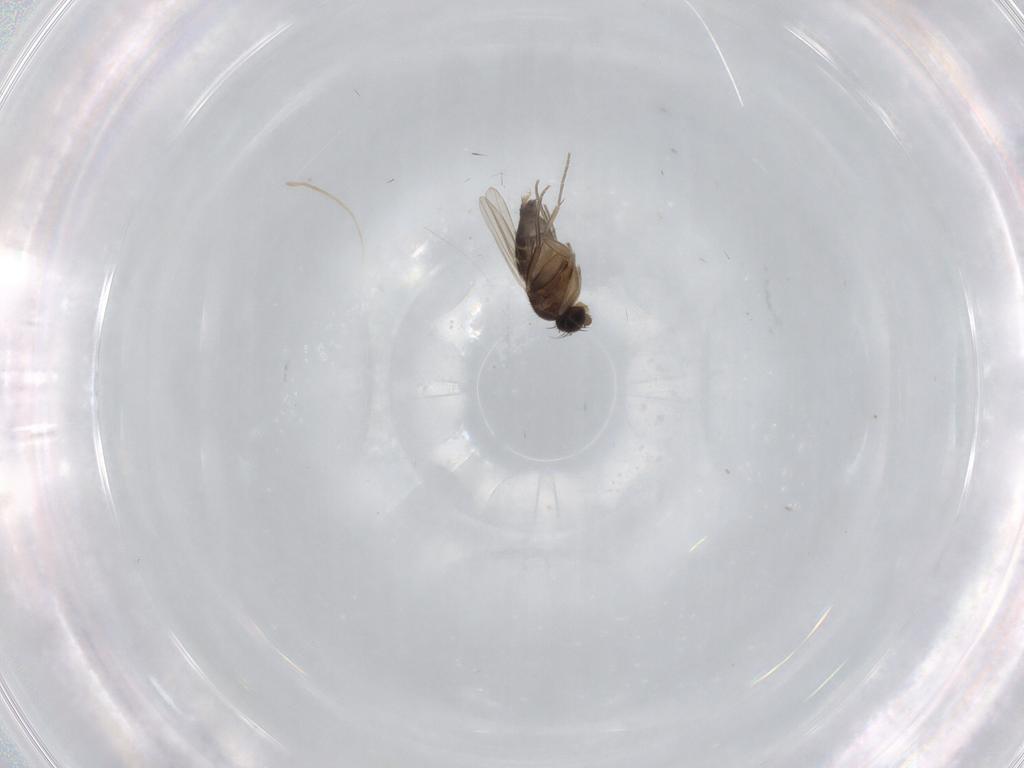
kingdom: Animalia
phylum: Arthropoda
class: Insecta
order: Diptera
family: Phoridae
